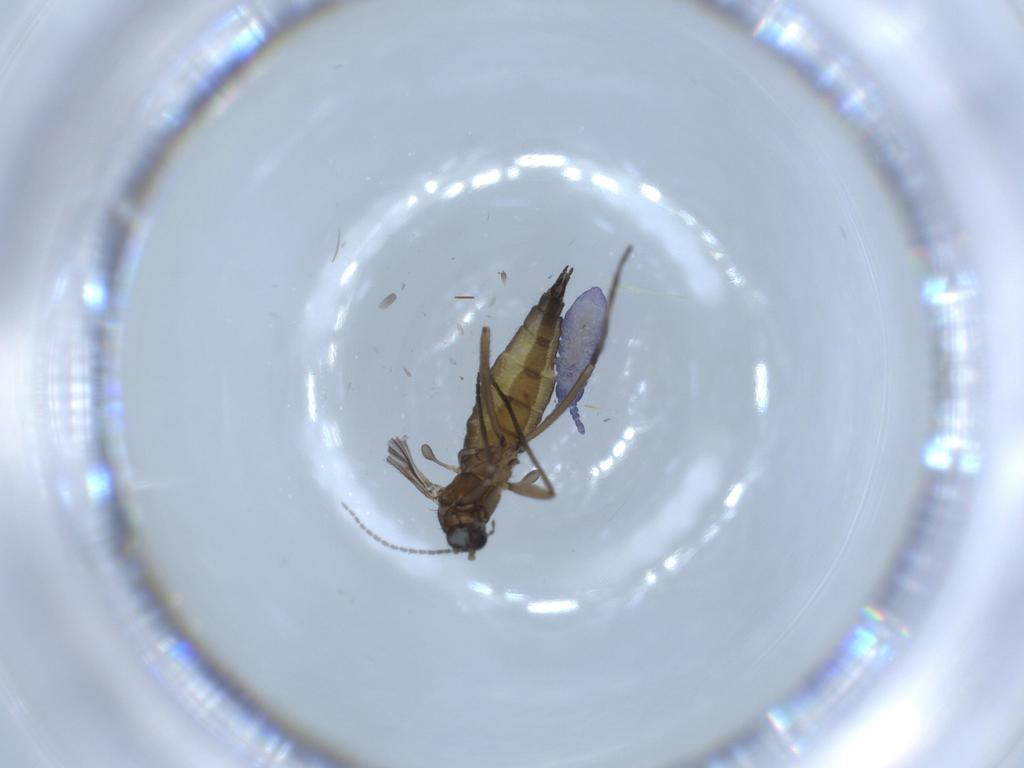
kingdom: Animalia
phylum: Arthropoda
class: Collembola
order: Poduromorpha
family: Neanuridae
